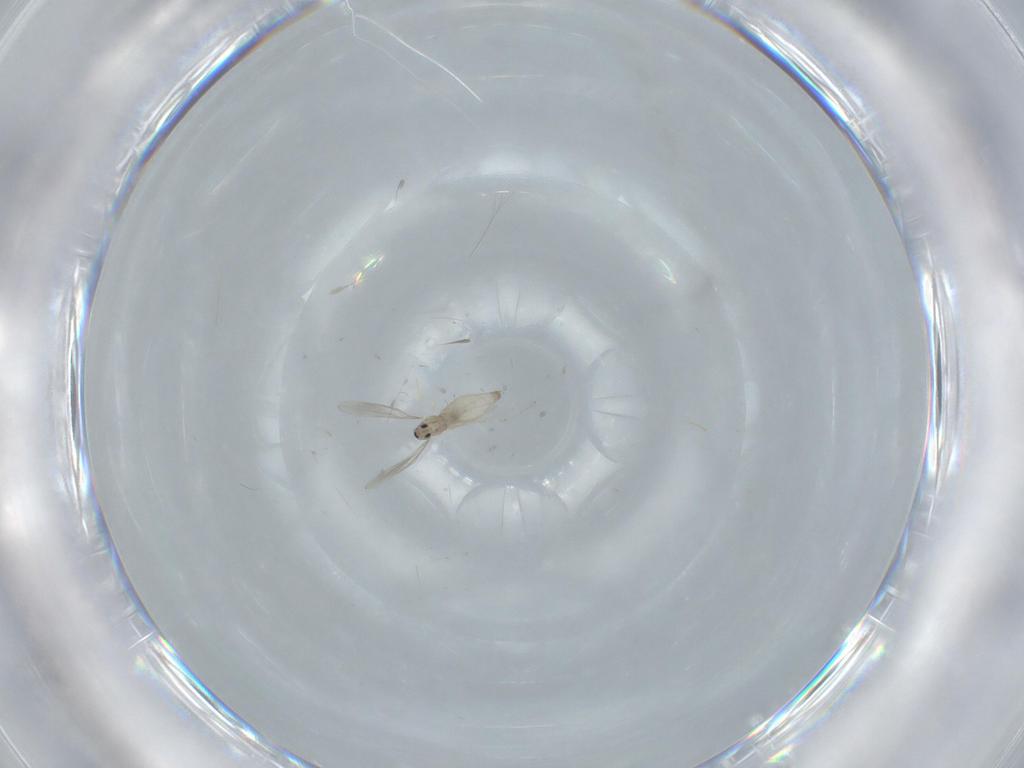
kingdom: Animalia
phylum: Arthropoda
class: Insecta
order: Diptera
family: Cecidomyiidae
